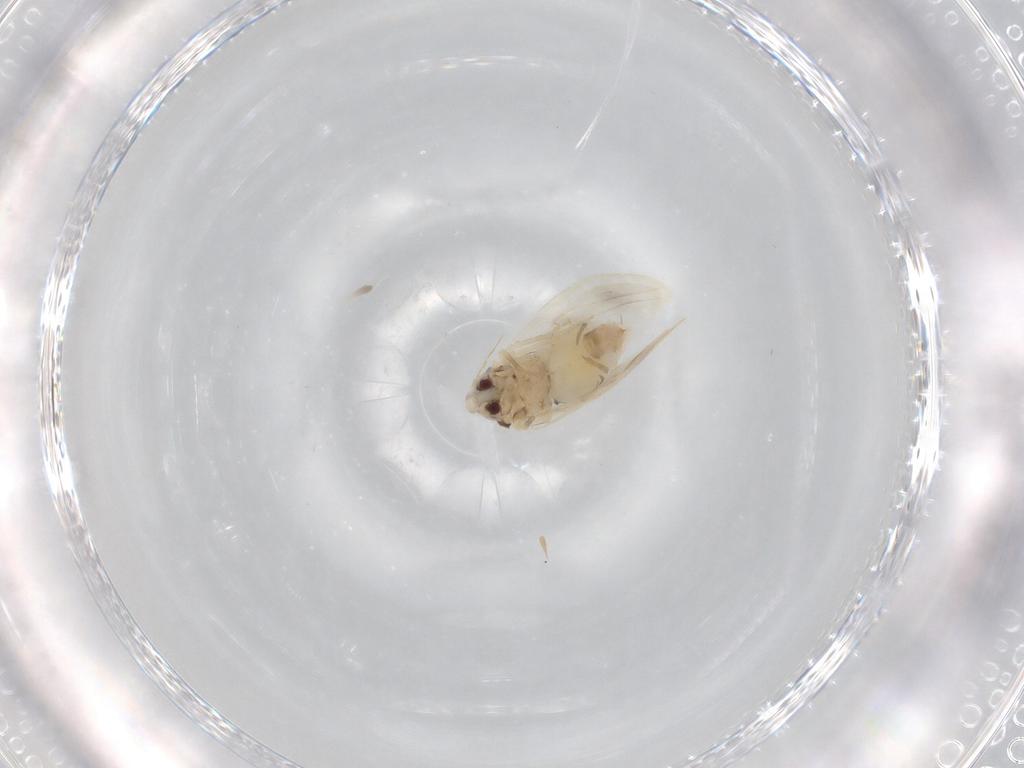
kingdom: Animalia
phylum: Arthropoda
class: Insecta
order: Hemiptera
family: Aleyrodidae
